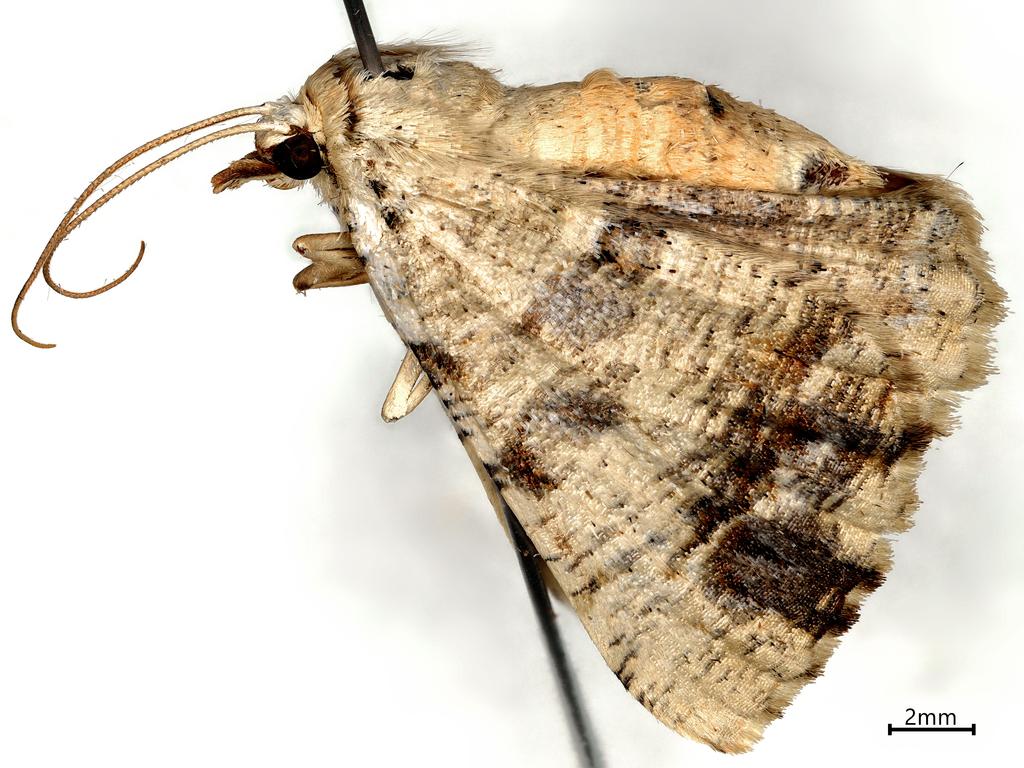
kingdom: Animalia
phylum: Arthropoda
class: Insecta
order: Lepidoptera
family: Geometridae
